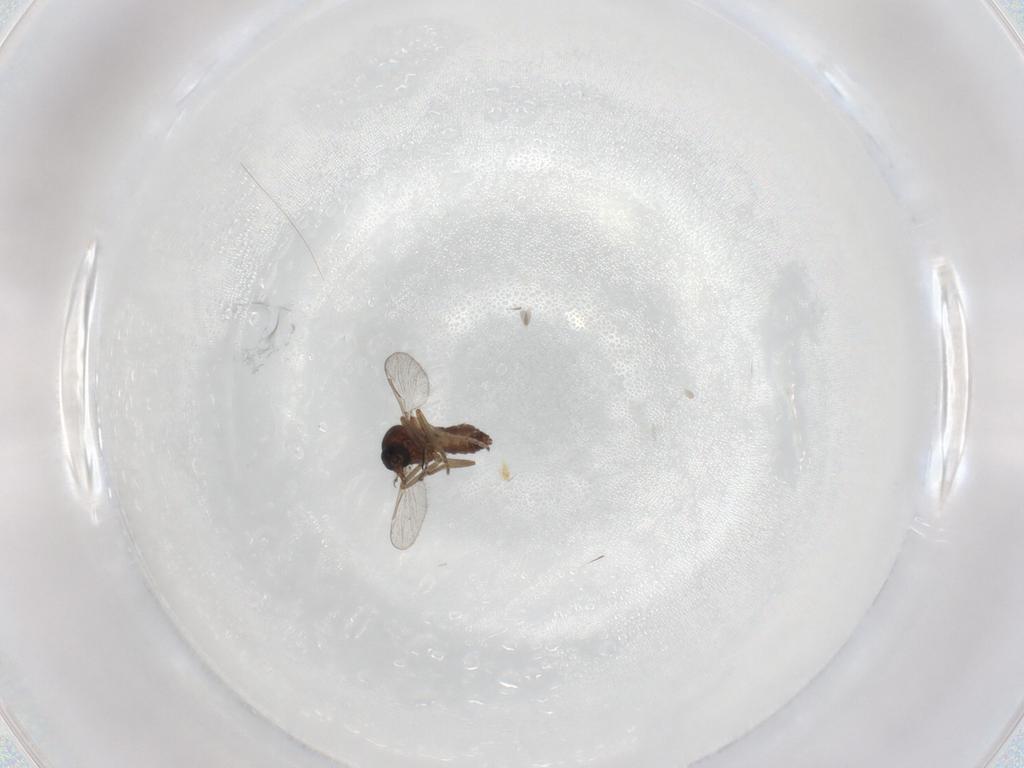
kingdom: Animalia
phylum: Arthropoda
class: Insecta
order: Diptera
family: Ceratopogonidae
